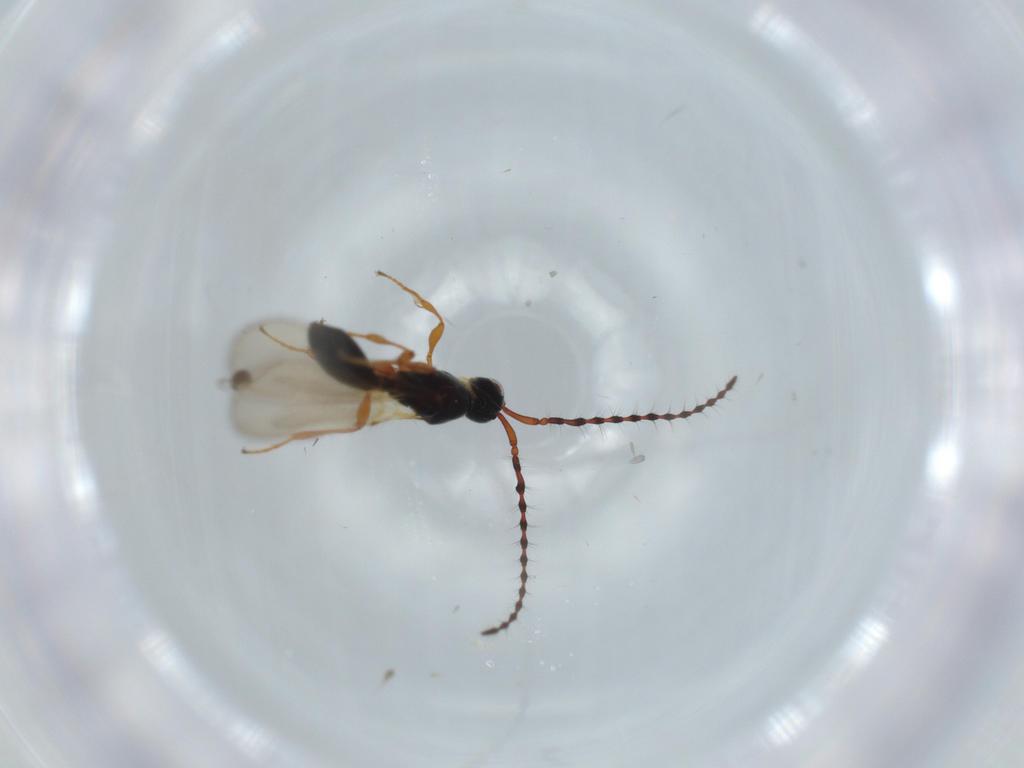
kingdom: Animalia
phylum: Arthropoda
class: Insecta
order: Hymenoptera
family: Diapriidae
